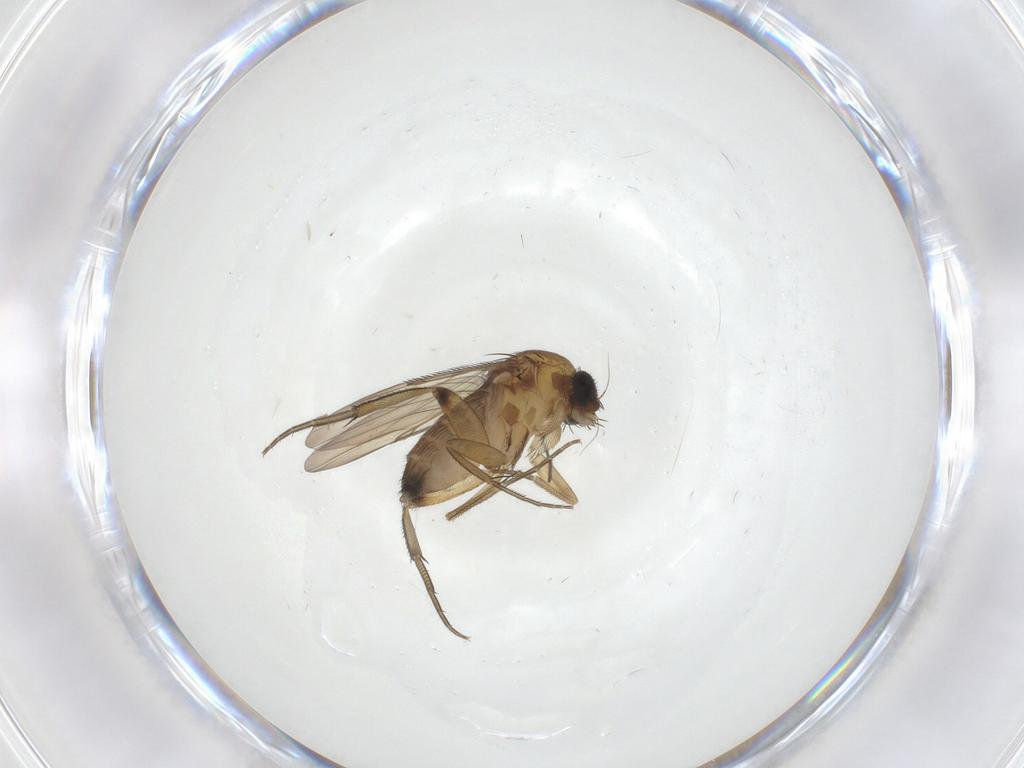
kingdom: Animalia
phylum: Arthropoda
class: Insecta
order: Diptera
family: Phoridae
